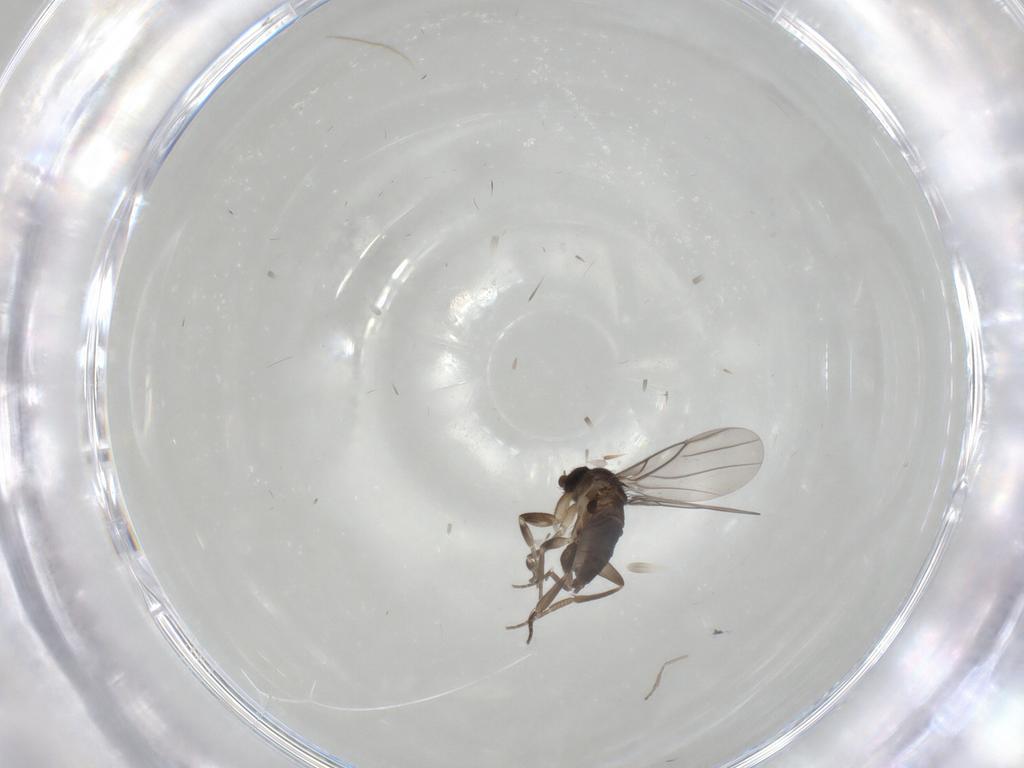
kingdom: Animalia
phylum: Arthropoda
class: Insecta
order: Diptera
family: Phoridae
